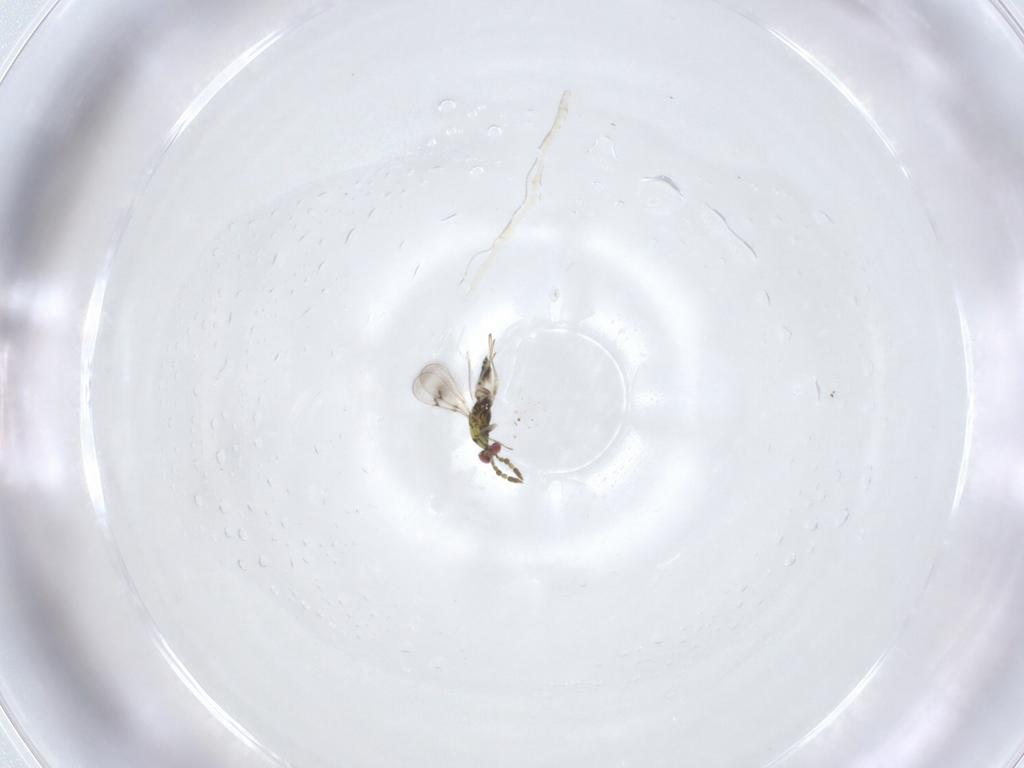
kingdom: Animalia
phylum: Arthropoda
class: Insecta
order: Hymenoptera
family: Eulophidae
